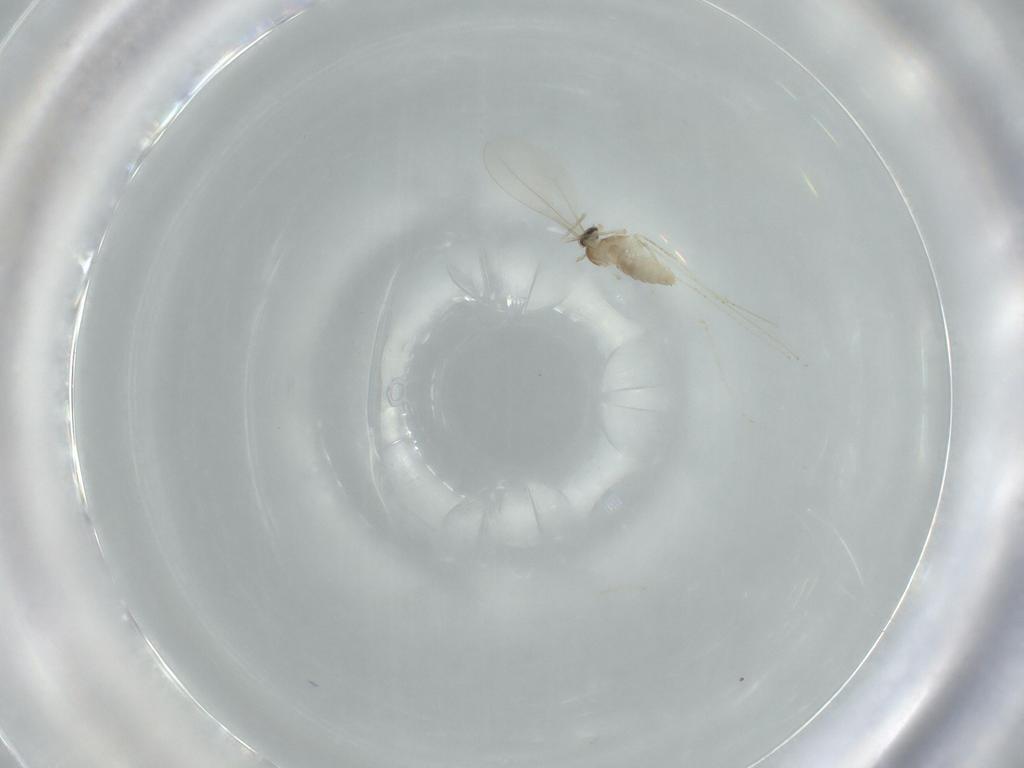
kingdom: Animalia
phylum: Arthropoda
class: Insecta
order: Diptera
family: Cecidomyiidae
